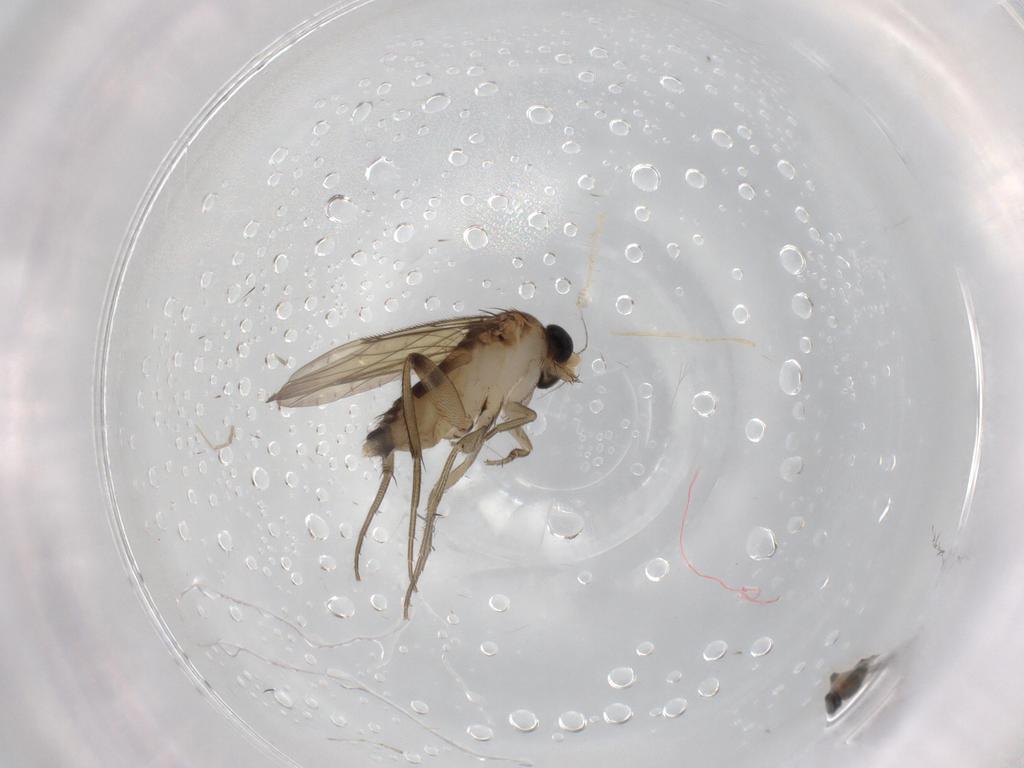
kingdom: Animalia
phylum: Arthropoda
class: Insecta
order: Diptera
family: Phoridae
